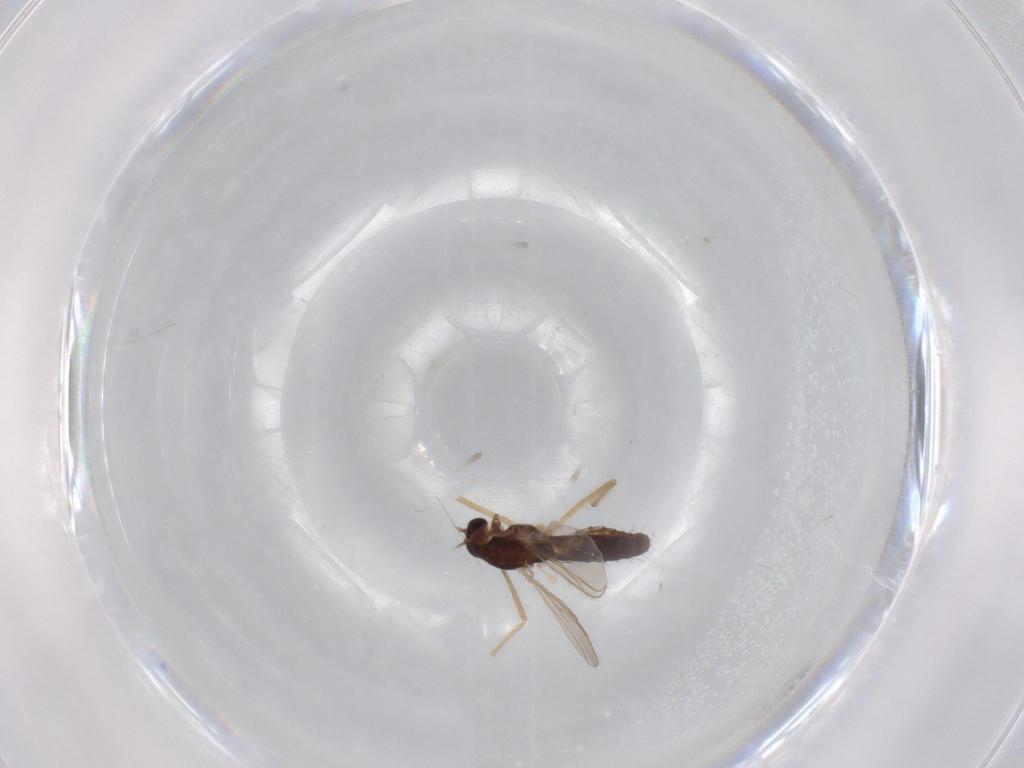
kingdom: Animalia
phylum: Arthropoda
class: Insecta
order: Diptera
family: Chironomidae
